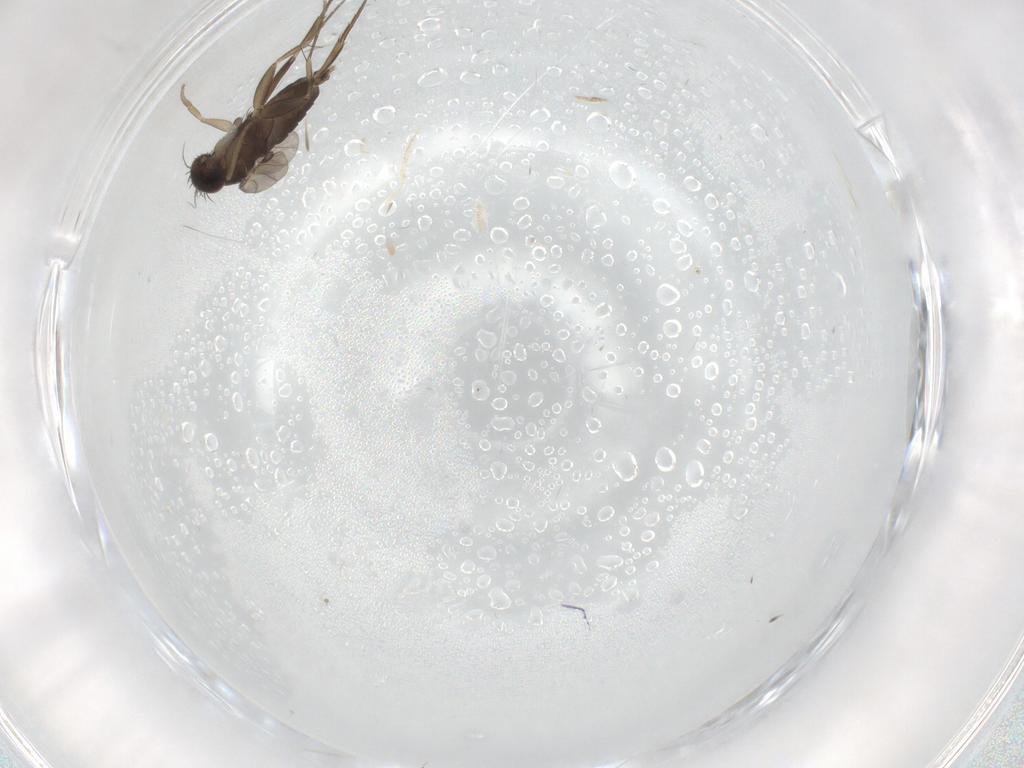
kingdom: Animalia
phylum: Arthropoda
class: Insecta
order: Diptera
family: Phoridae
